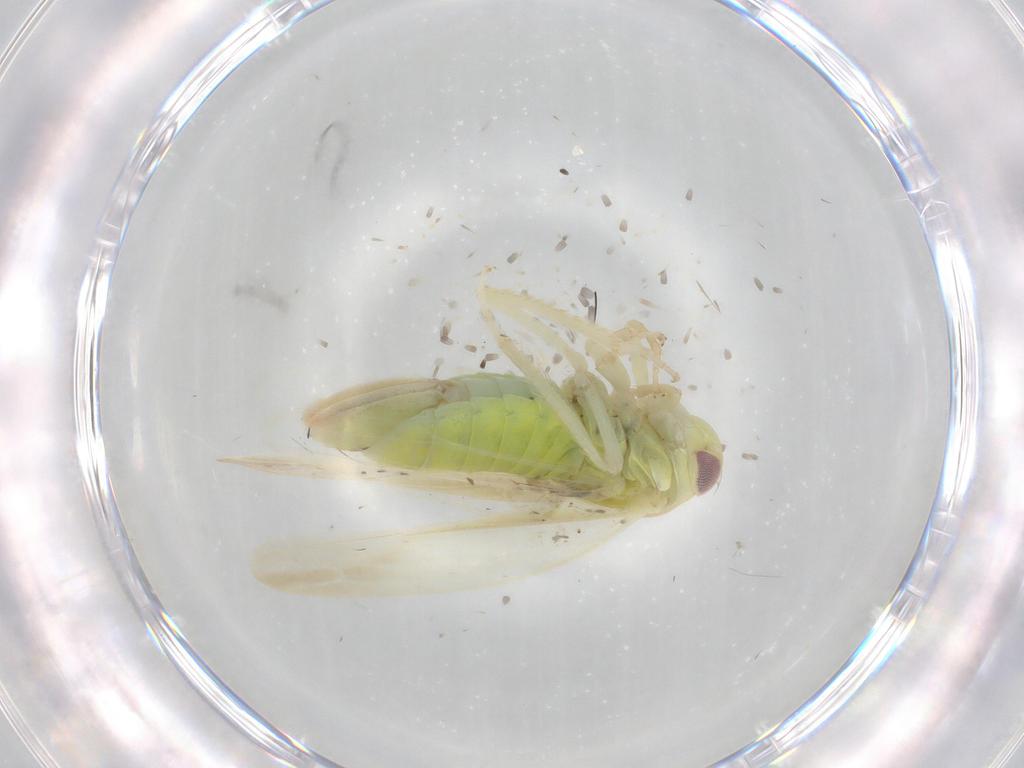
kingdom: Animalia
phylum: Arthropoda
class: Insecta
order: Hemiptera
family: Cicadellidae
